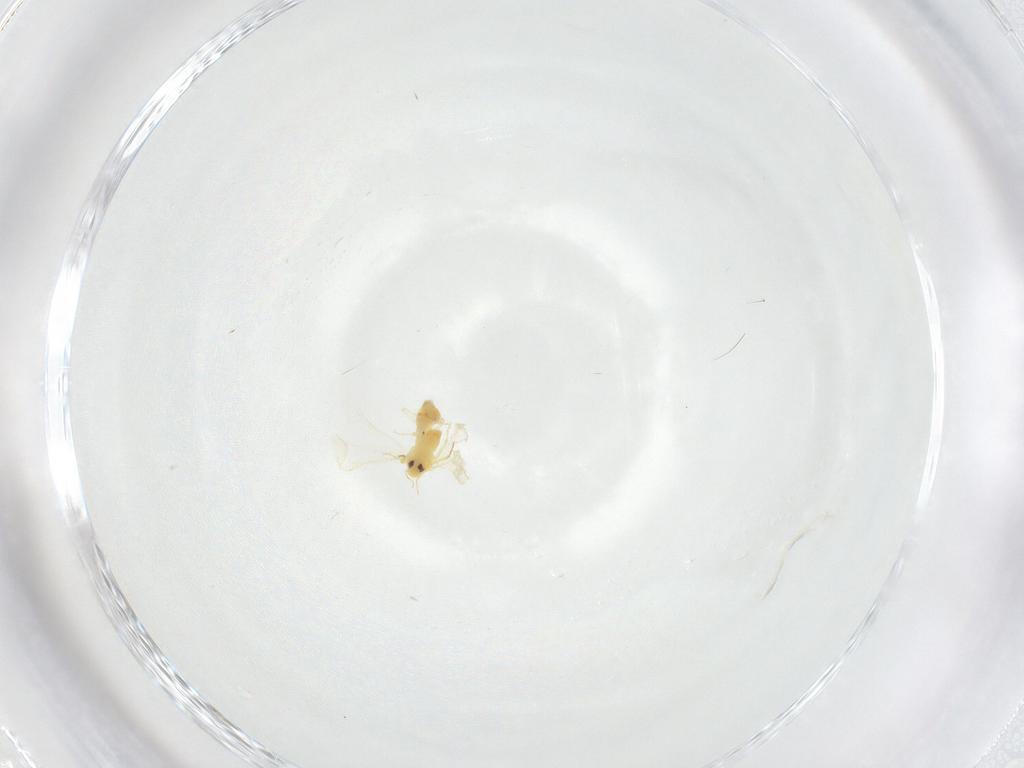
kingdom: Animalia
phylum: Arthropoda
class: Insecta
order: Hemiptera
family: Aleyrodidae
